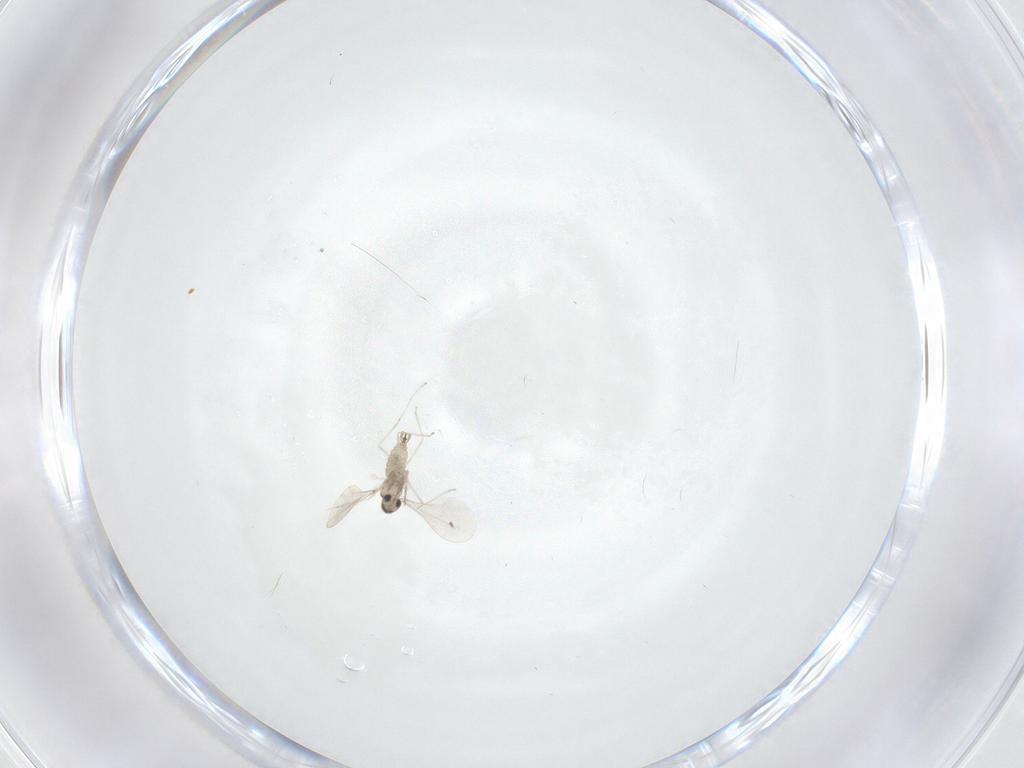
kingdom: Animalia
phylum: Arthropoda
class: Insecta
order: Diptera
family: Cecidomyiidae
